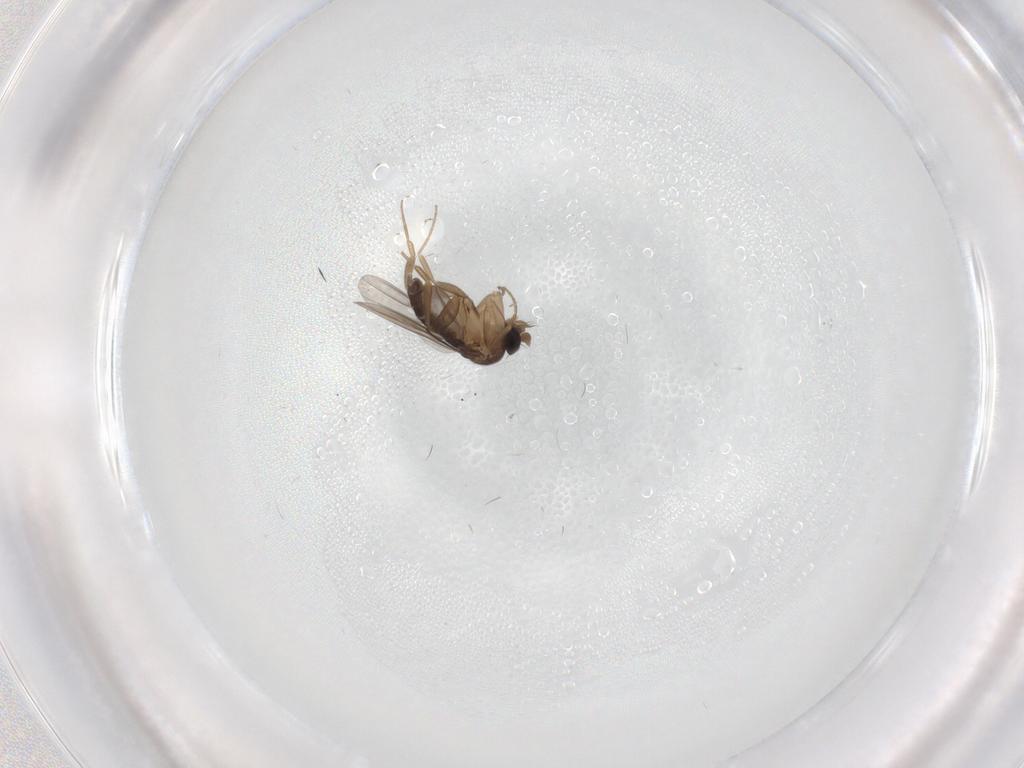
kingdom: Animalia
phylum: Arthropoda
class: Insecta
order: Diptera
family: Phoridae
